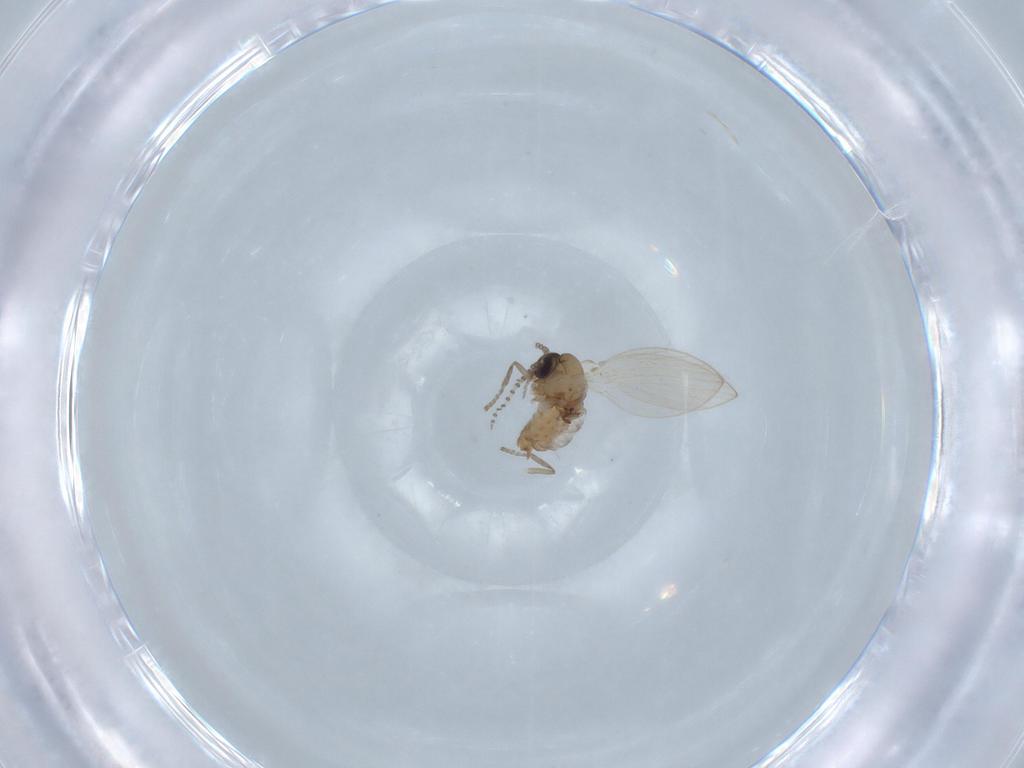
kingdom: Animalia
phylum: Arthropoda
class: Insecta
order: Diptera
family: Psychodidae
